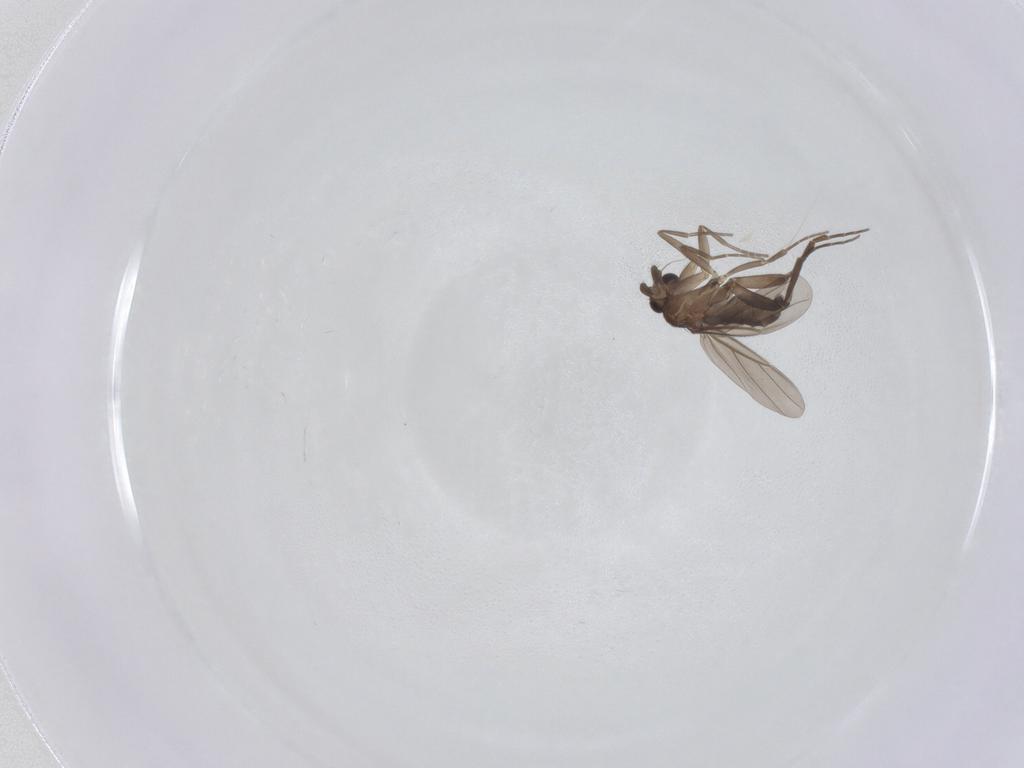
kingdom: Animalia
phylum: Arthropoda
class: Insecta
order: Diptera
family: Phoridae
